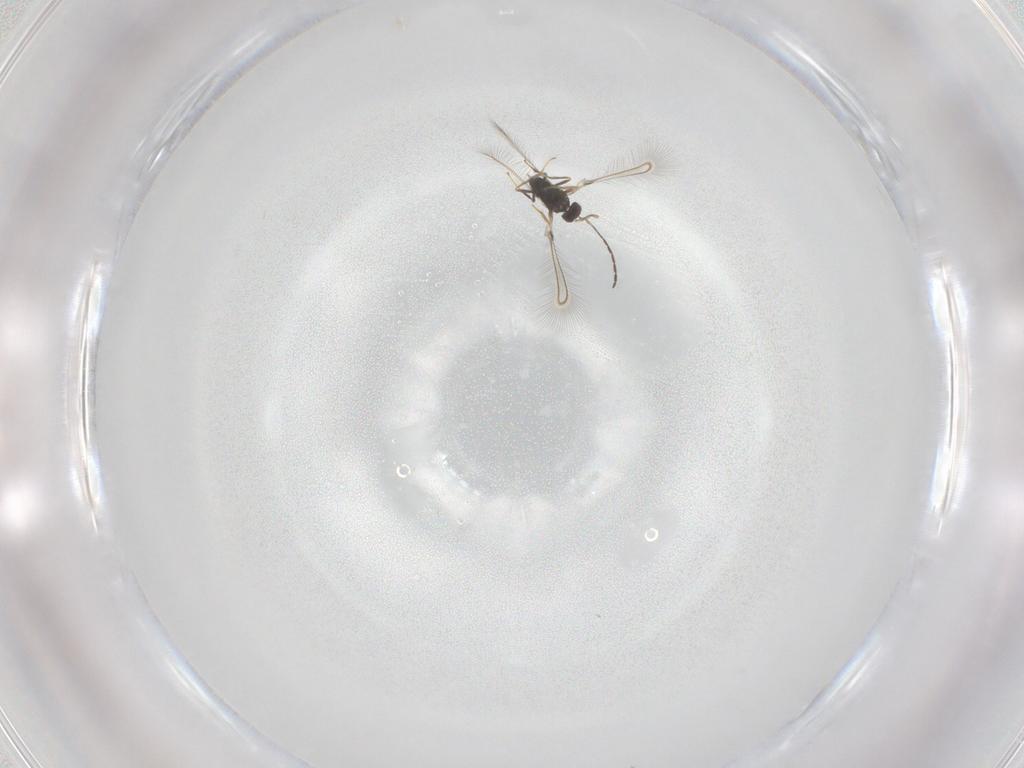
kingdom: Animalia
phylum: Arthropoda
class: Insecta
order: Hymenoptera
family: Mymaridae
